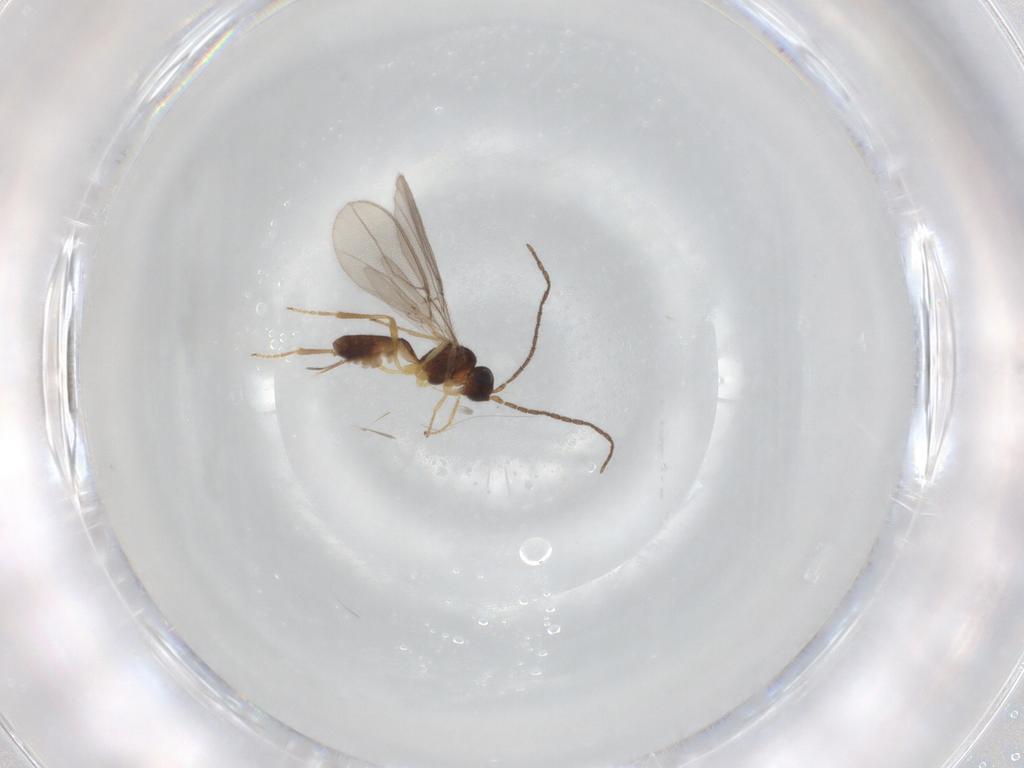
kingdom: Animalia
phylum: Arthropoda
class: Insecta
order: Hymenoptera
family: Braconidae
